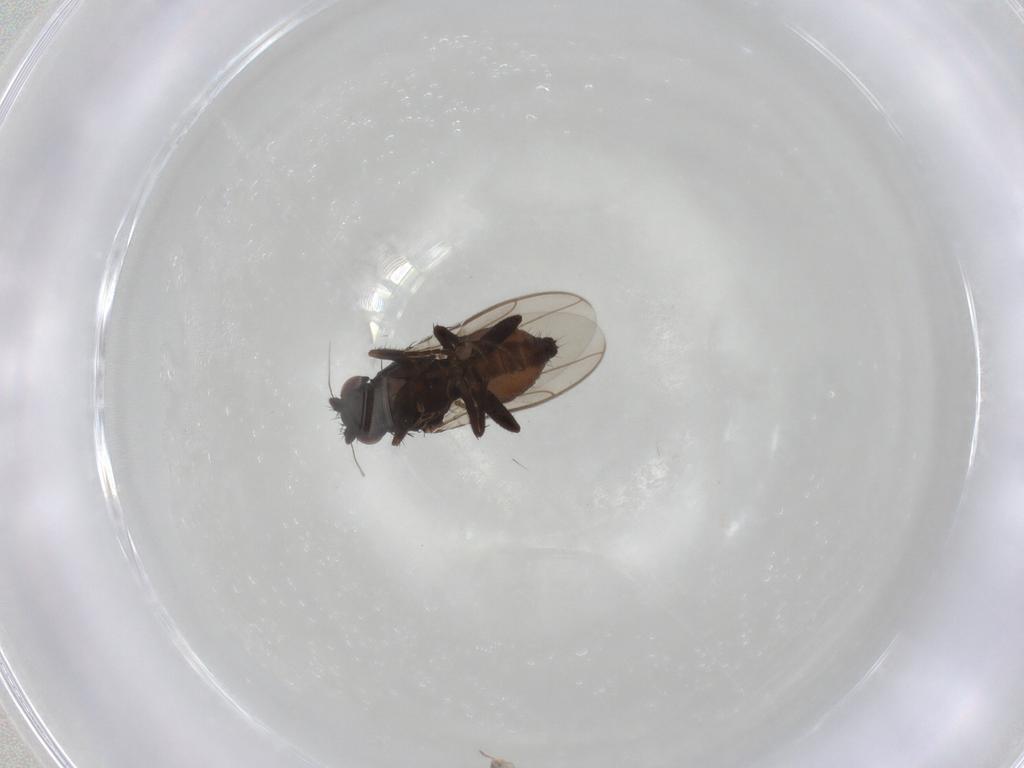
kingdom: Animalia
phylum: Arthropoda
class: Insecta
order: Diptera
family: Sphaeroceridae
